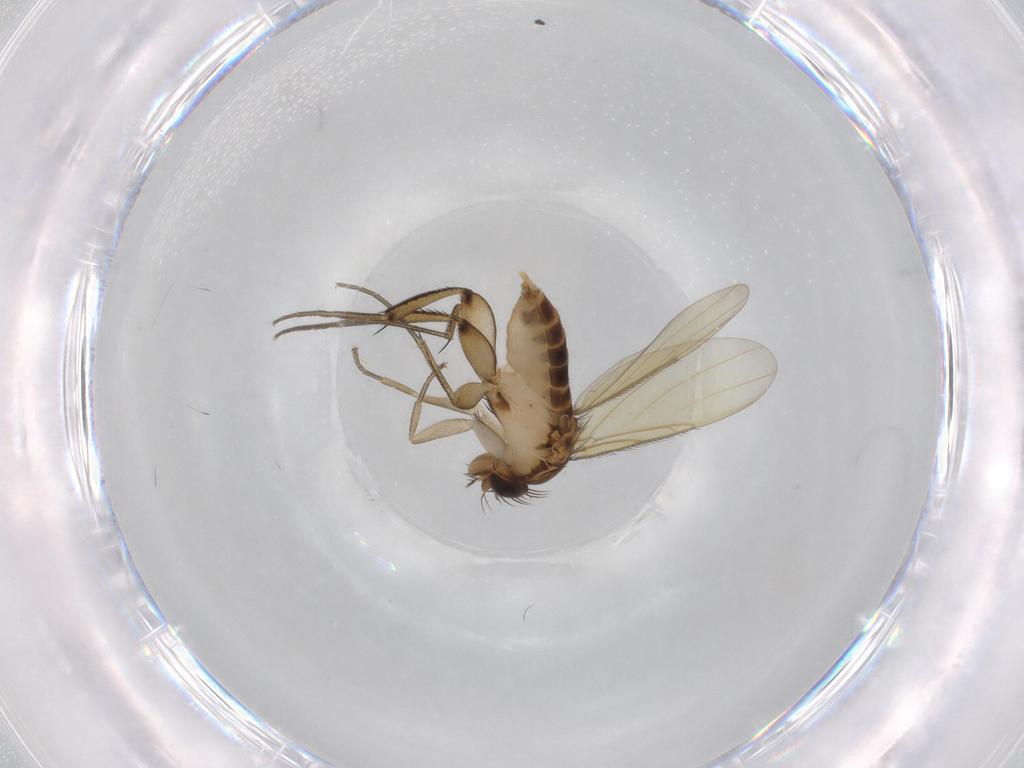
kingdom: Animalia
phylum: Arthropoda
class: Insecta
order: Diptera
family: Phoridae
